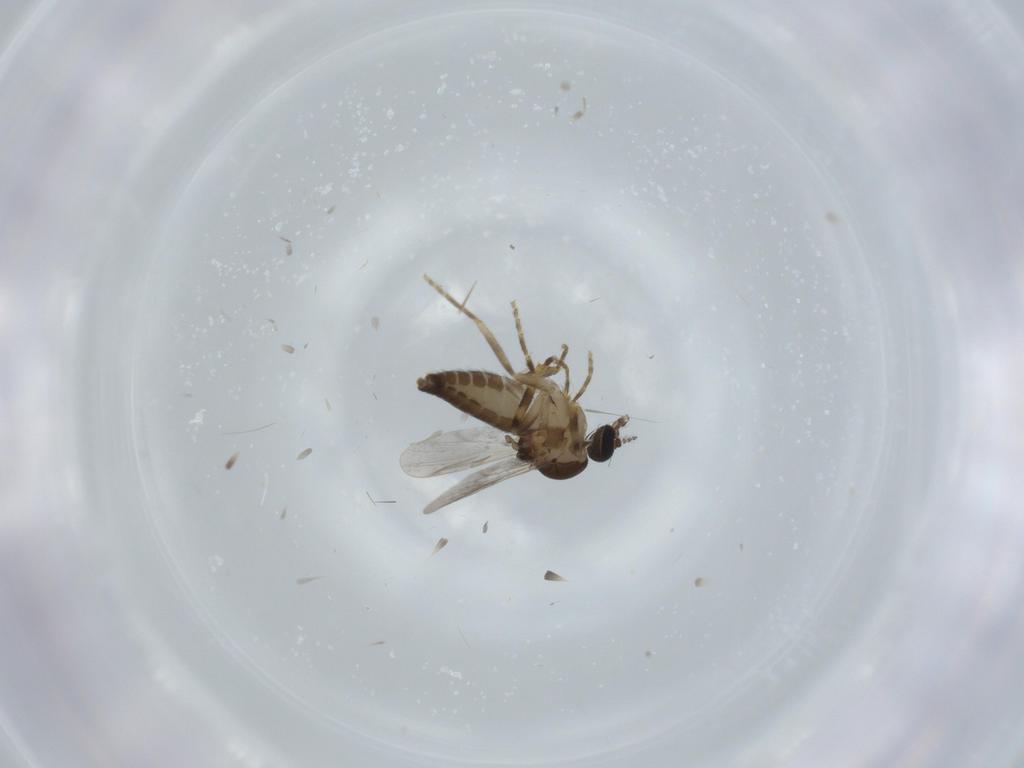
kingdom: Animalia
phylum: Arthropoda
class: Insecta
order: Diptera
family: Ceratopogonidae
